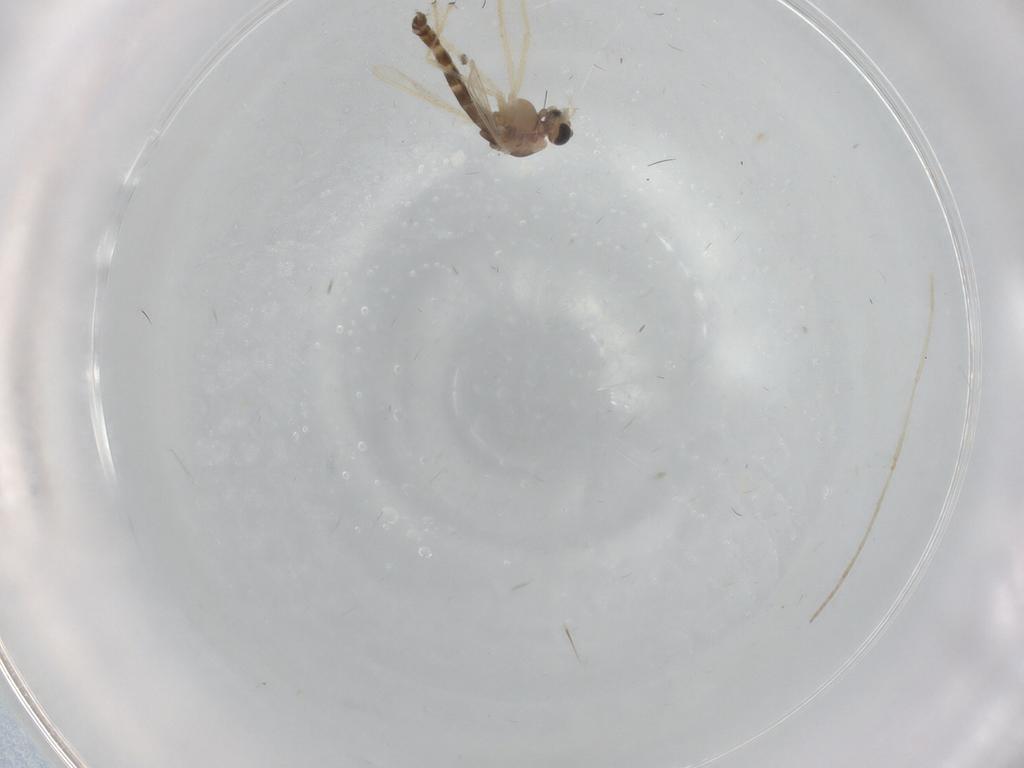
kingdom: Animalia
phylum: Arthropoda
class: Insecta
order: Diptera
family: Chironomidae
